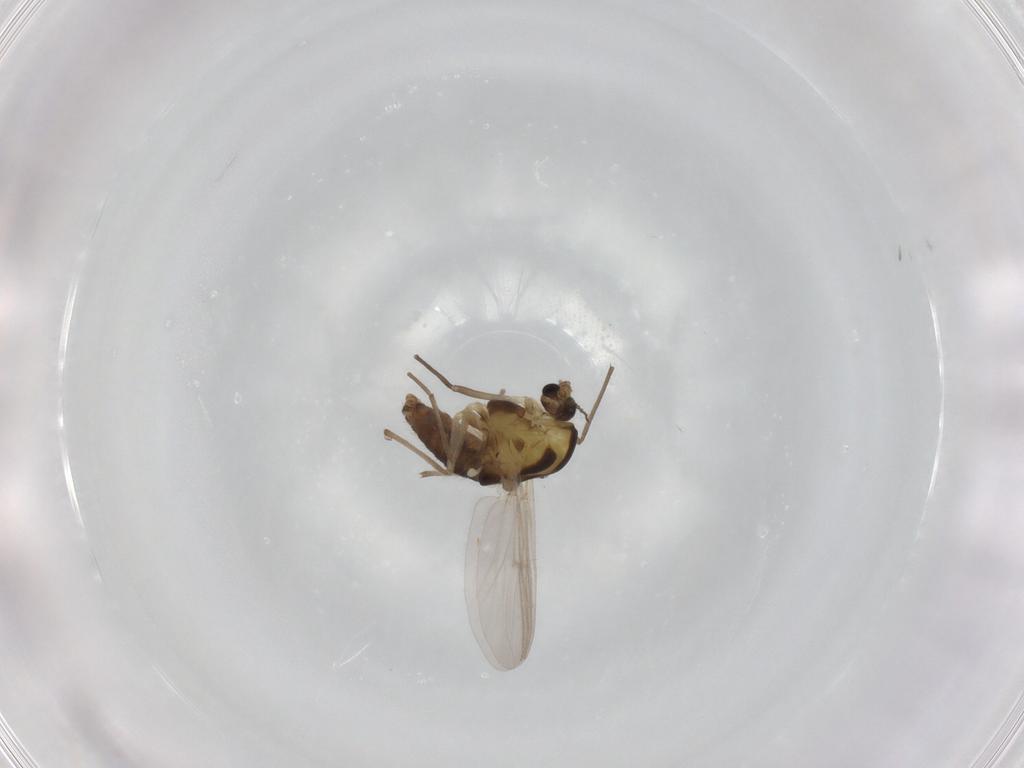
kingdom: Animalia
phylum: Arthropoda
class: Insecta
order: Diptera
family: Chironomidae
